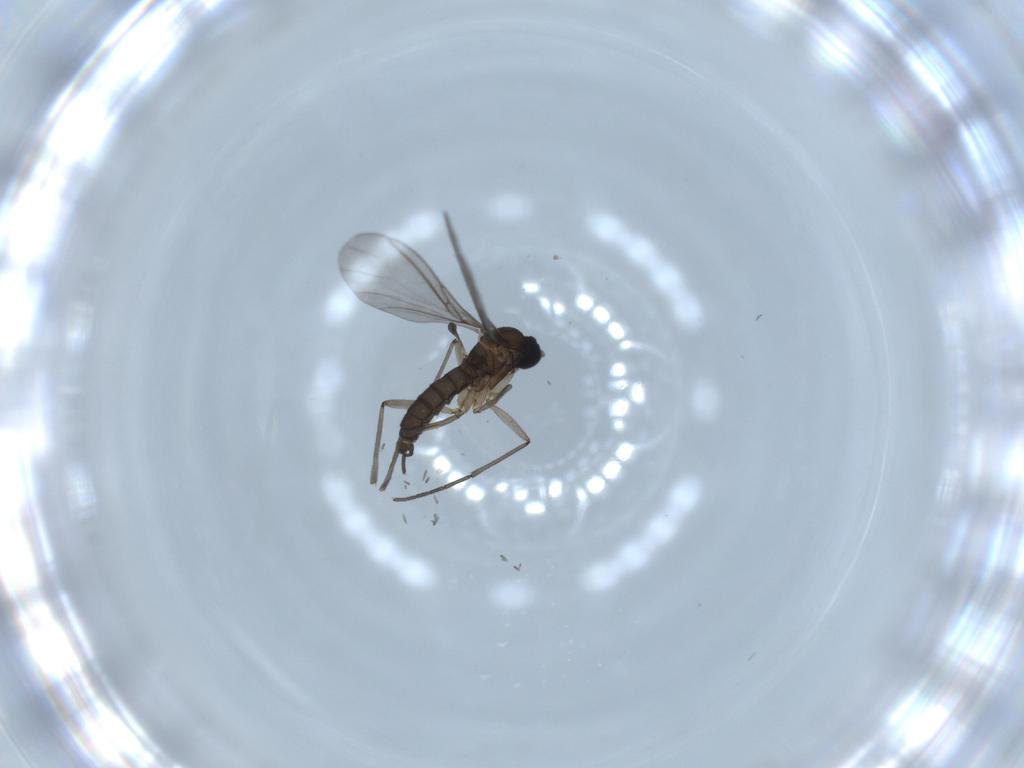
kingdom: Animalia
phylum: Arthropoda
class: Insecta
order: Diptera
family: Sciaridae
